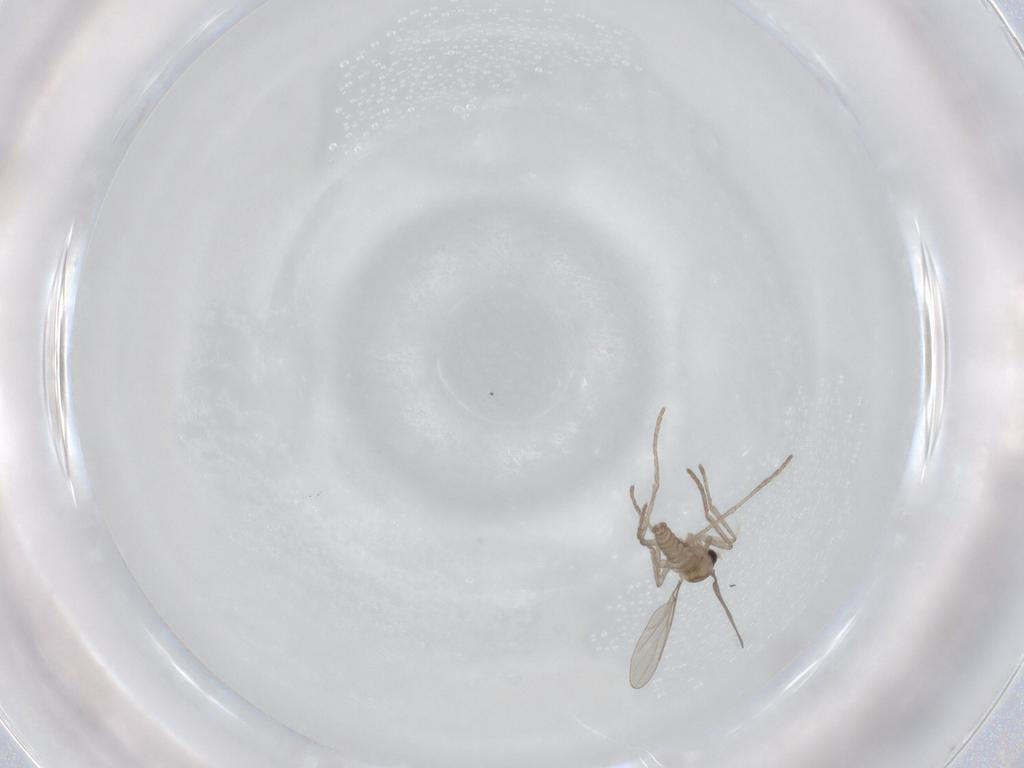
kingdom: Animalia
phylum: Arthropoda
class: Insecta
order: Diptera
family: Cecidomyiidae
